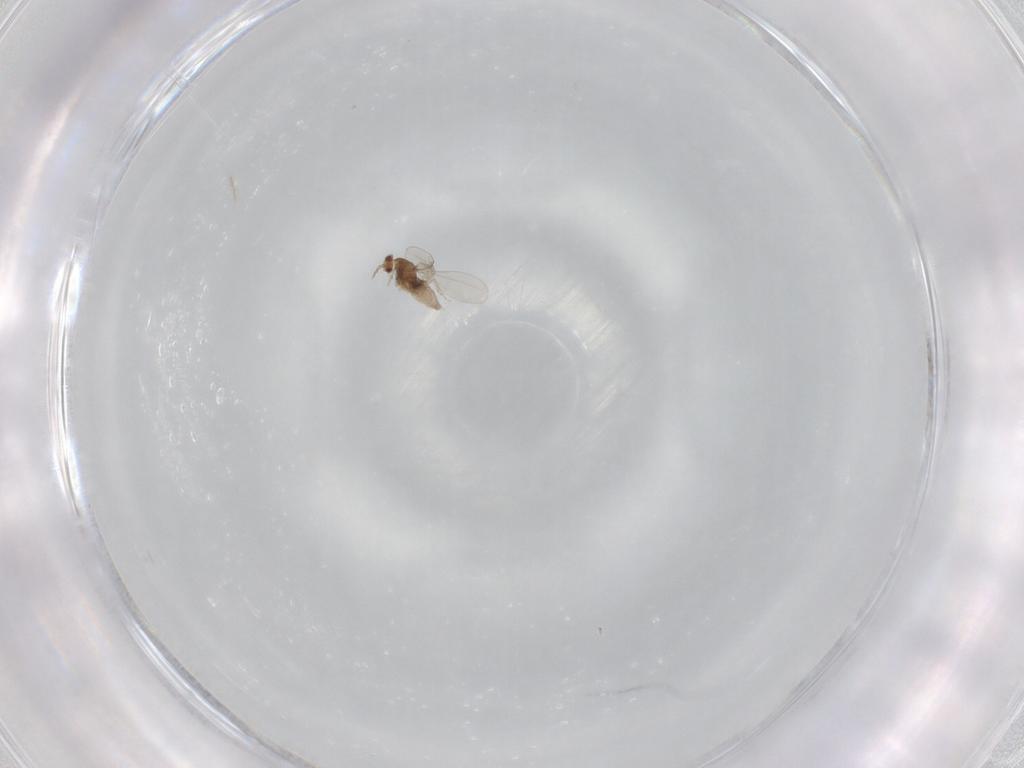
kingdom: Animalia
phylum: Arthropoda
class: Insecta
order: Diptera
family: Cecidomyiidae
